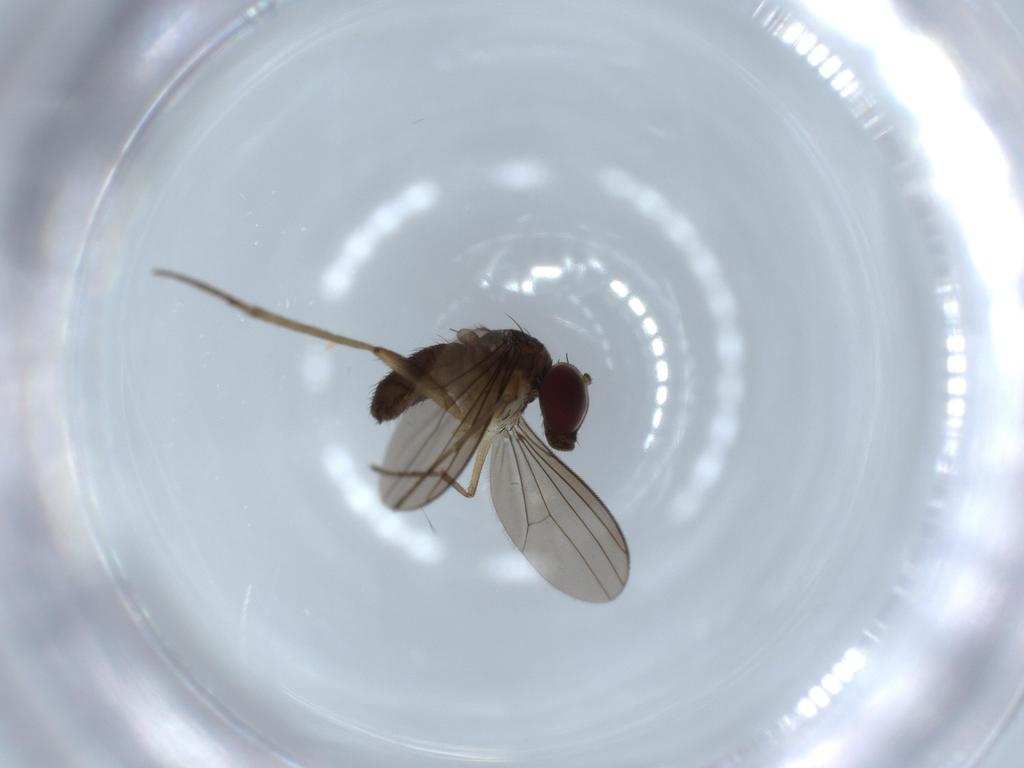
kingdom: Animalia
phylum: Arthropoda
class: Insecta
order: Diptera
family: Dolichopodidae
